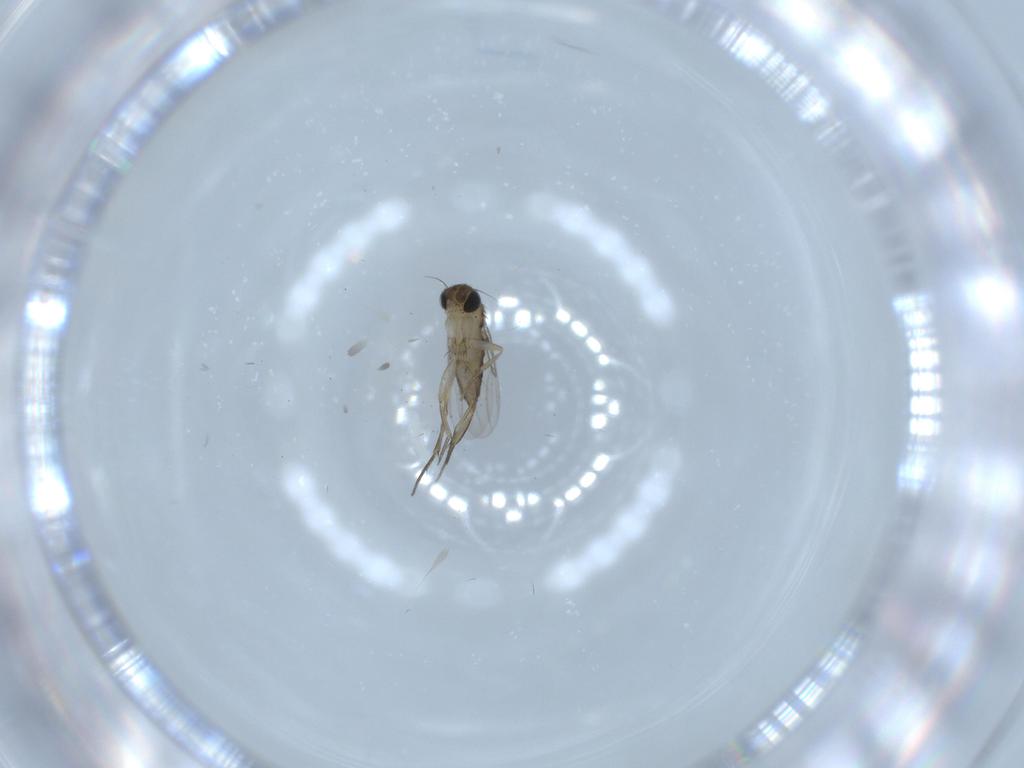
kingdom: Animalia
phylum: Arthropoda
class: Insecta
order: Diptera
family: Phoridae
